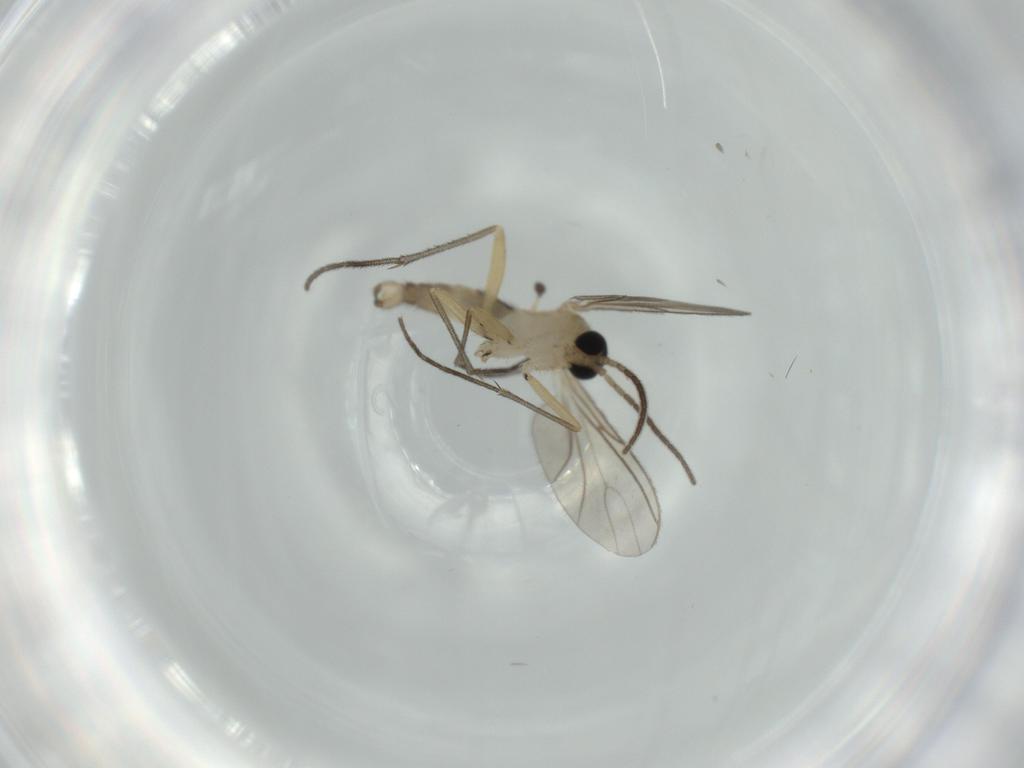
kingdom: Animalia
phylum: Arthropoda
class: Insecta
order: Diptera
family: Sciaridae
